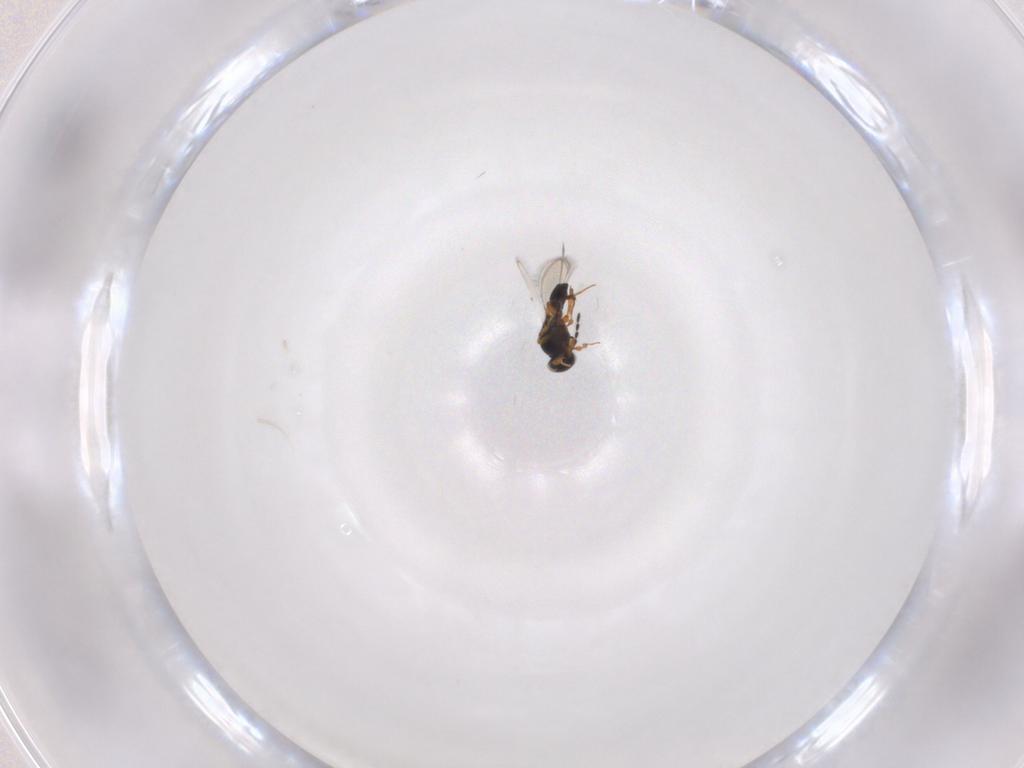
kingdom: Animalia
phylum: Arthropoda
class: Insecta
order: Hymenoptera
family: Platygastridae
